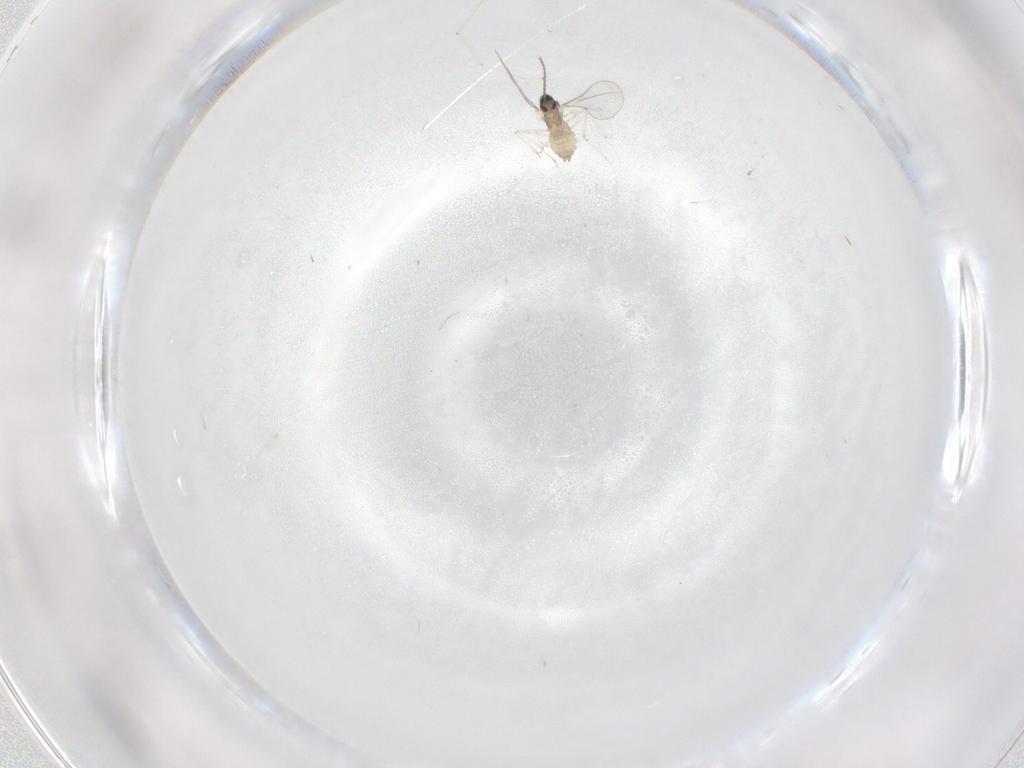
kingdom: Animalia
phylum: Arthropoda
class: Insecta
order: Diptera
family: Cecidomyiidae
